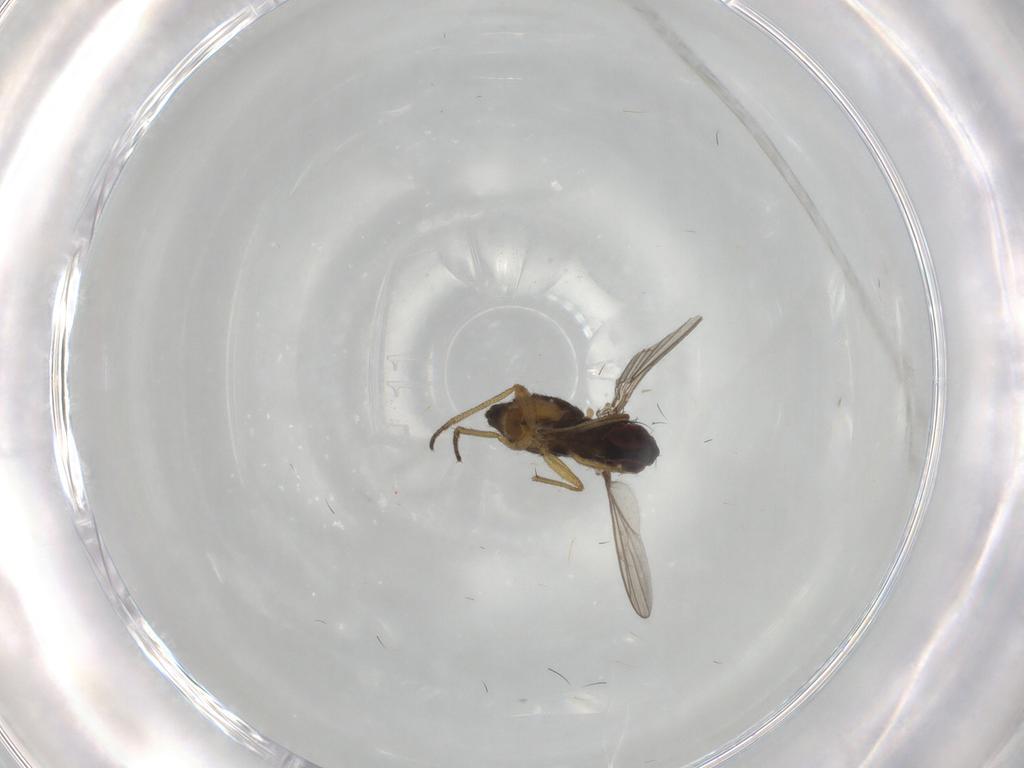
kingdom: Animalia
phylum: Arthropoda
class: Insecta
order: Diptera
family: Dolichopodidae
